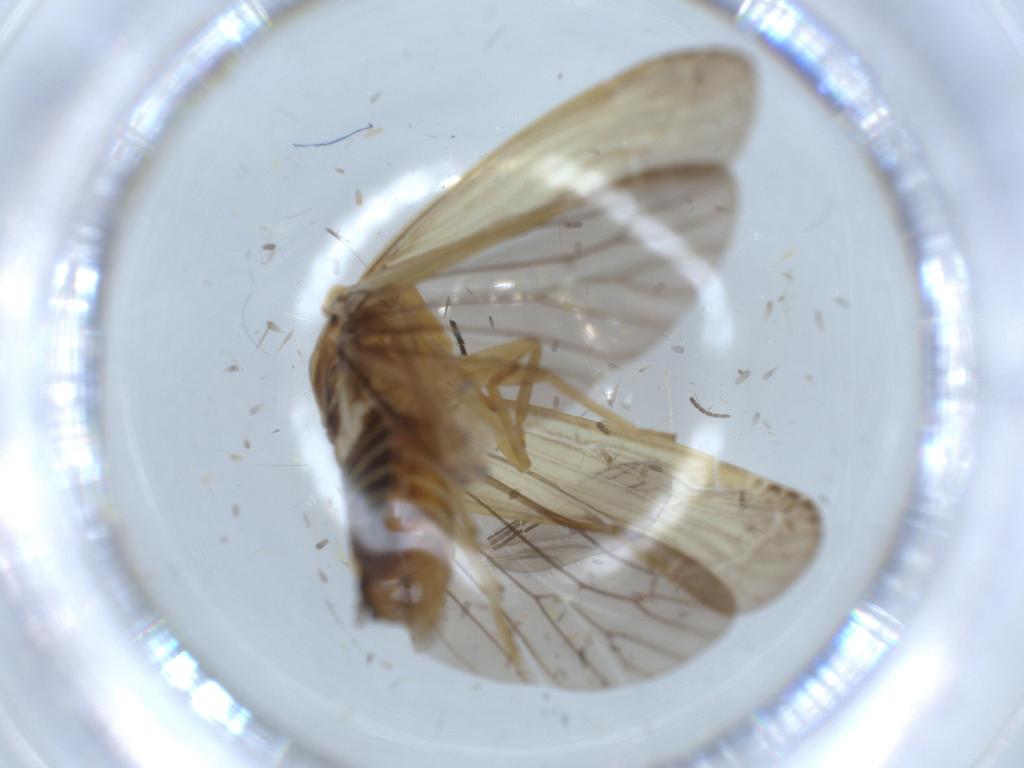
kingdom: Animalia
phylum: Arthropoda
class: Insecta
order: Hemiptera
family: Achilidae
